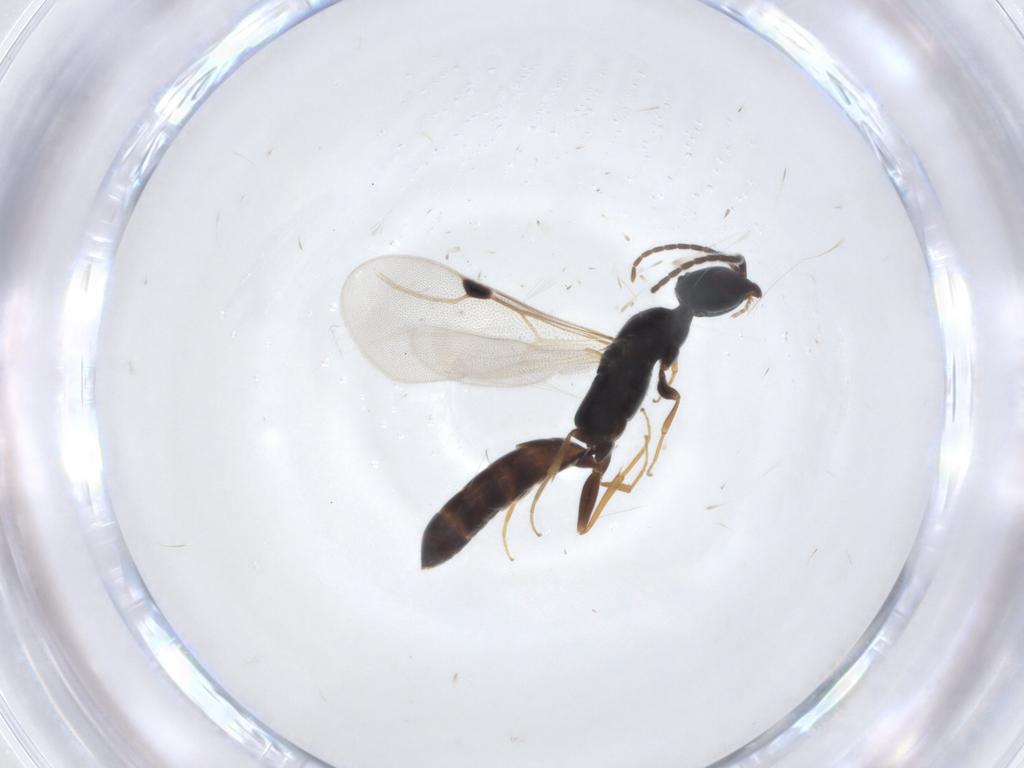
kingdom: Animalia
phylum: Arthropoda
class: Insecta
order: Hymenoptera
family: Bethylidae
